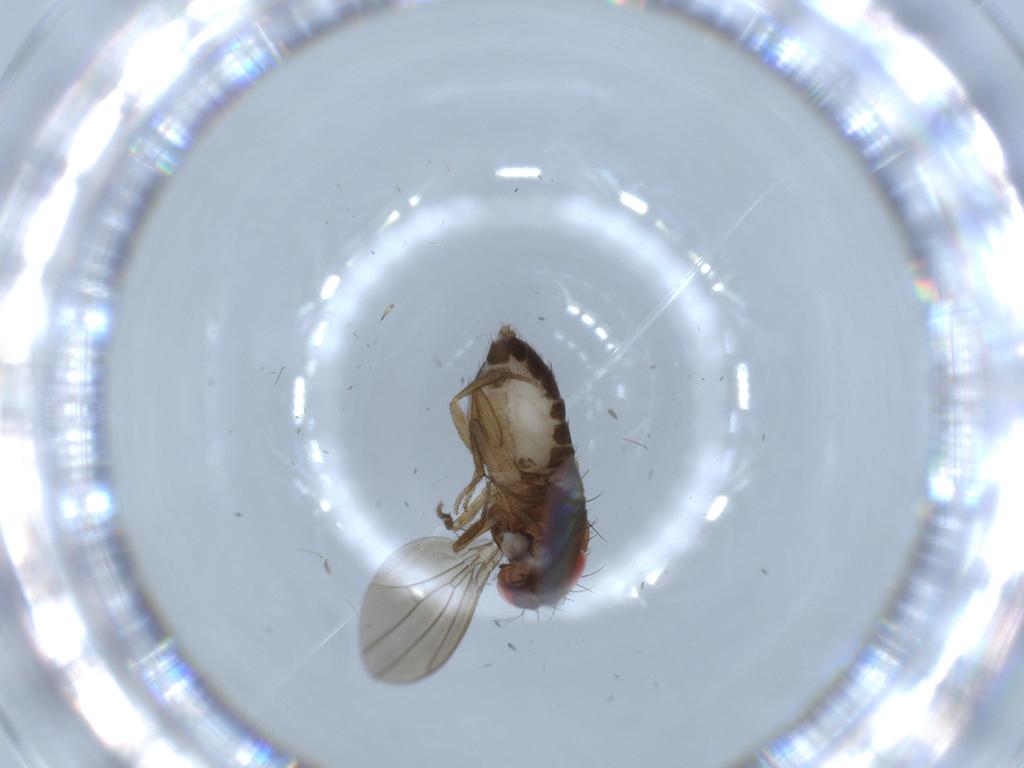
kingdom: Animalia
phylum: Arthropoda
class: Insecta
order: Diptera
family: Drosophilidae
